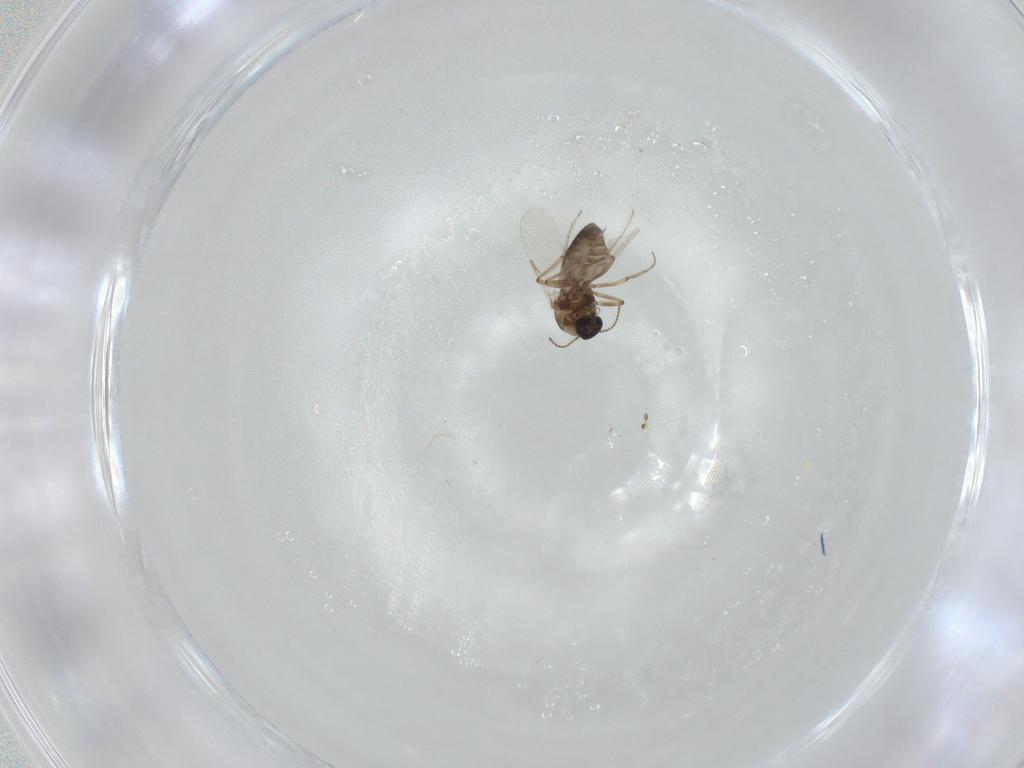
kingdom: Animalia
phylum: Arthropoda
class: Insecta
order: Diptera
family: Ceratopogonidae
